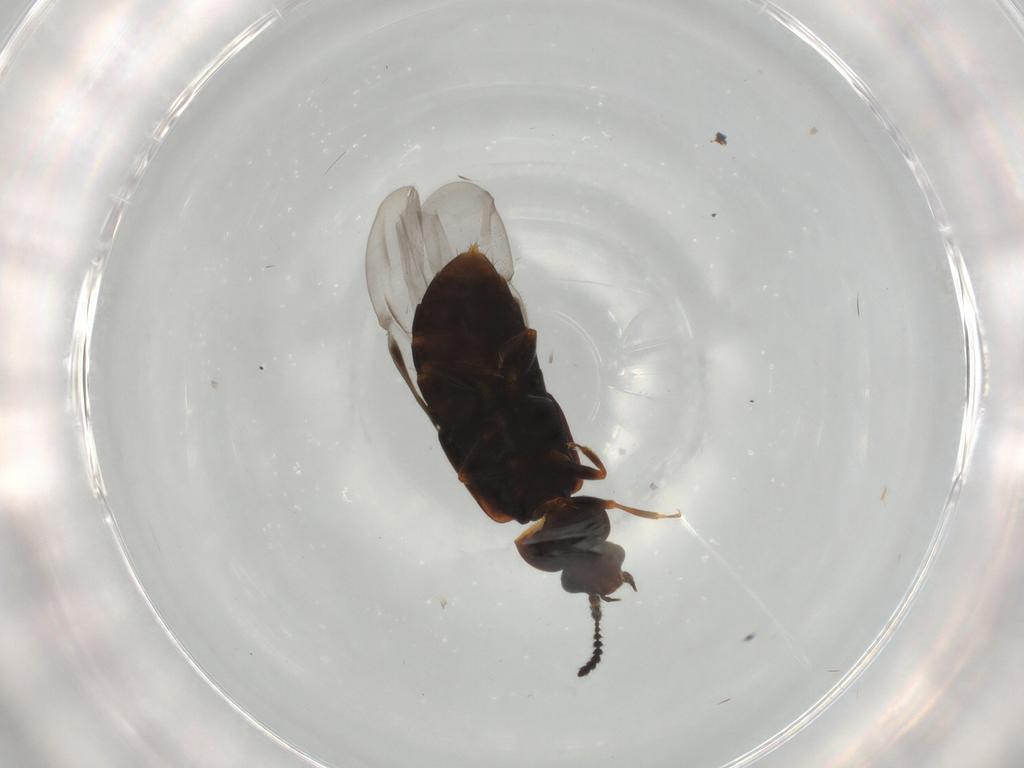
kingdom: Animalia
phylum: Arthropoda
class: Insecta
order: Coleoptera
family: Staphylinidae
